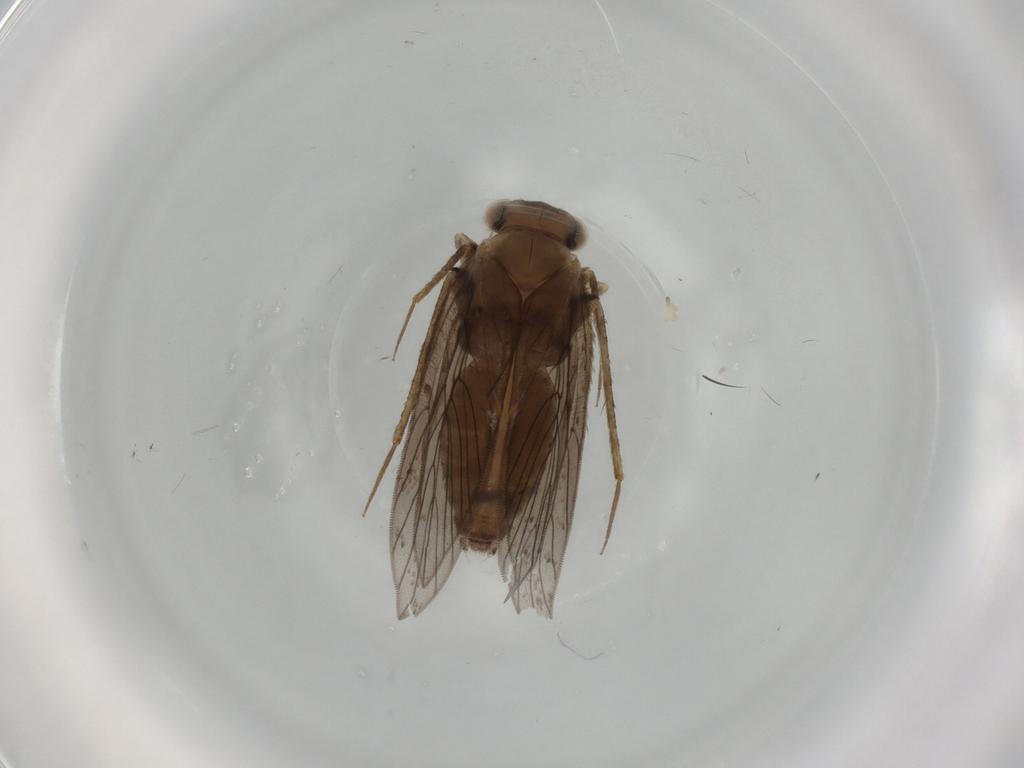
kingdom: Animalia
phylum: Arthropoda
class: Insecta
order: Psocodea
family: Lepidopsocidae
